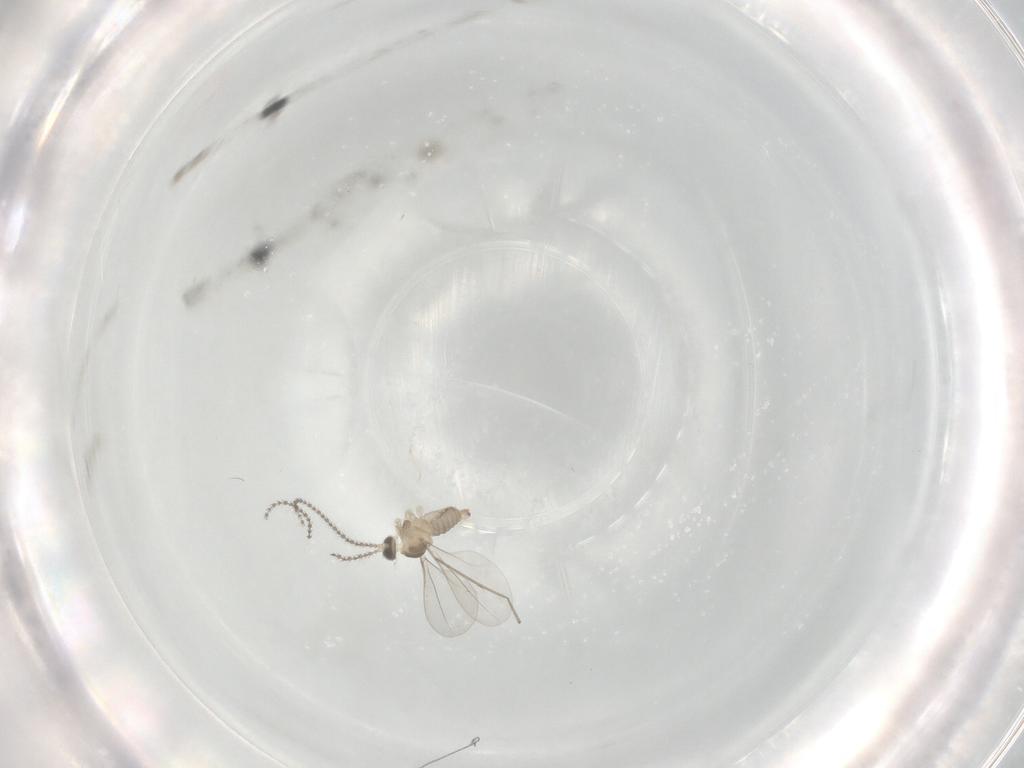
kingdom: Animalia
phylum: Arthropoda
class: Insecta
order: Diptera
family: Cecidomyiidae
